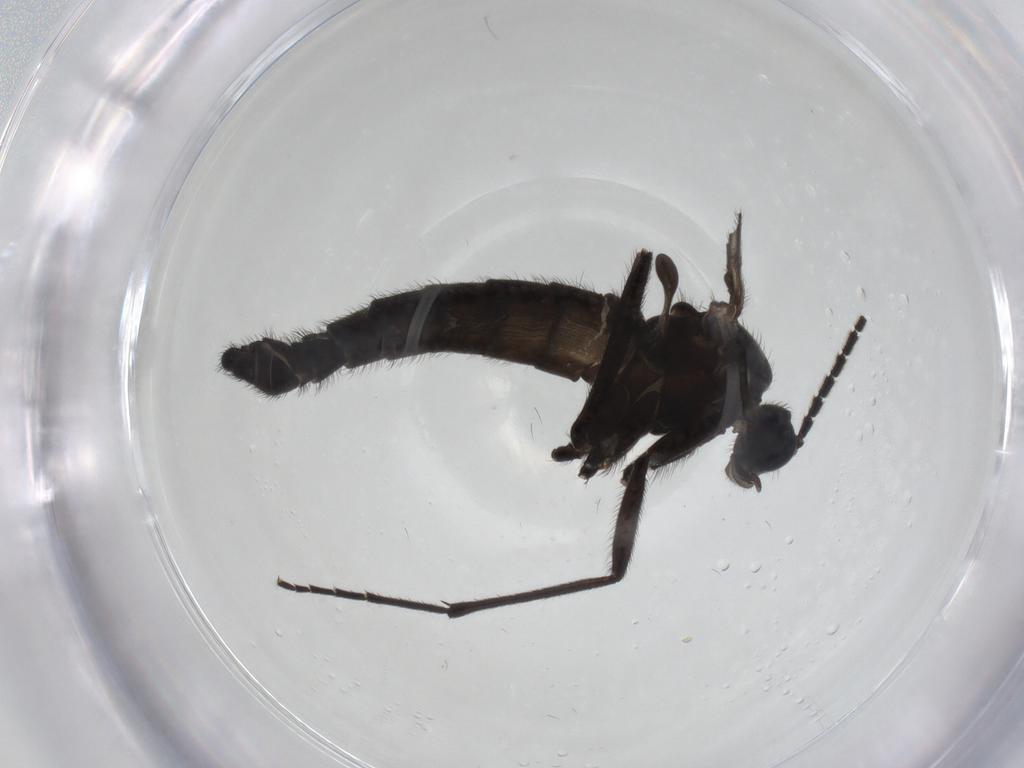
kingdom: Animalia
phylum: Arthropoda
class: Insecta
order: Diptera
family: Sciaridae
